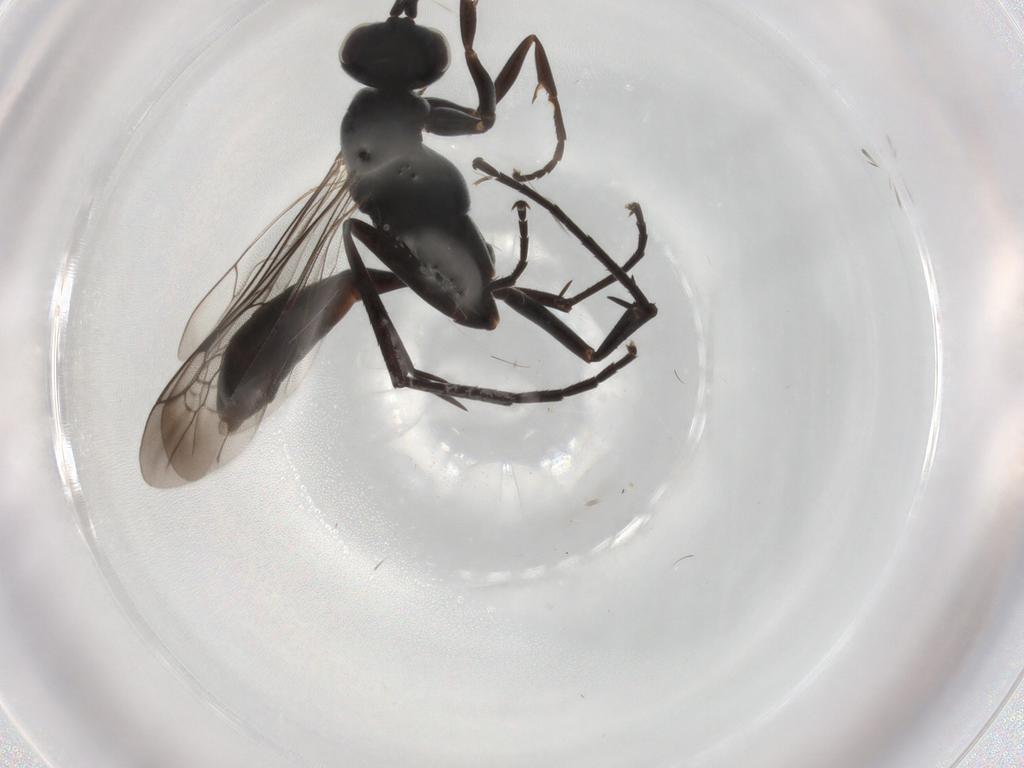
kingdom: Animalia
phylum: Arthropoda
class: Insecta
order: Hymenoptera
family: Pompilidae
